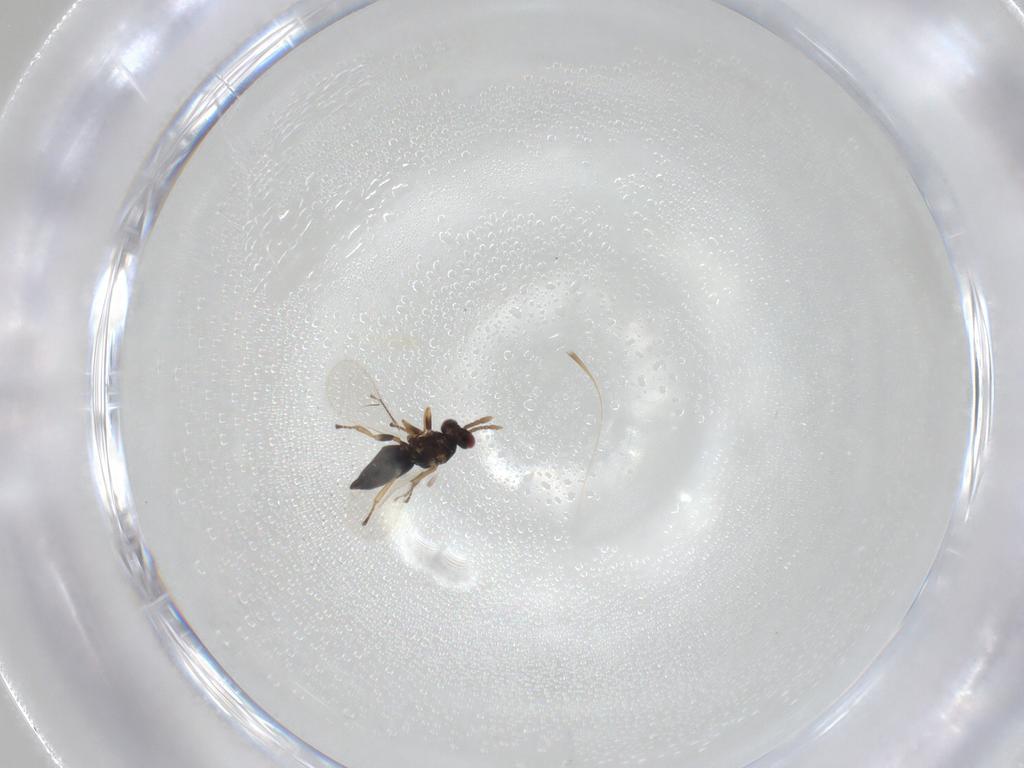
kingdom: Animalia
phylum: Arthropoda
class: Insecta
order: Hymenoptera
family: Eulophidae
